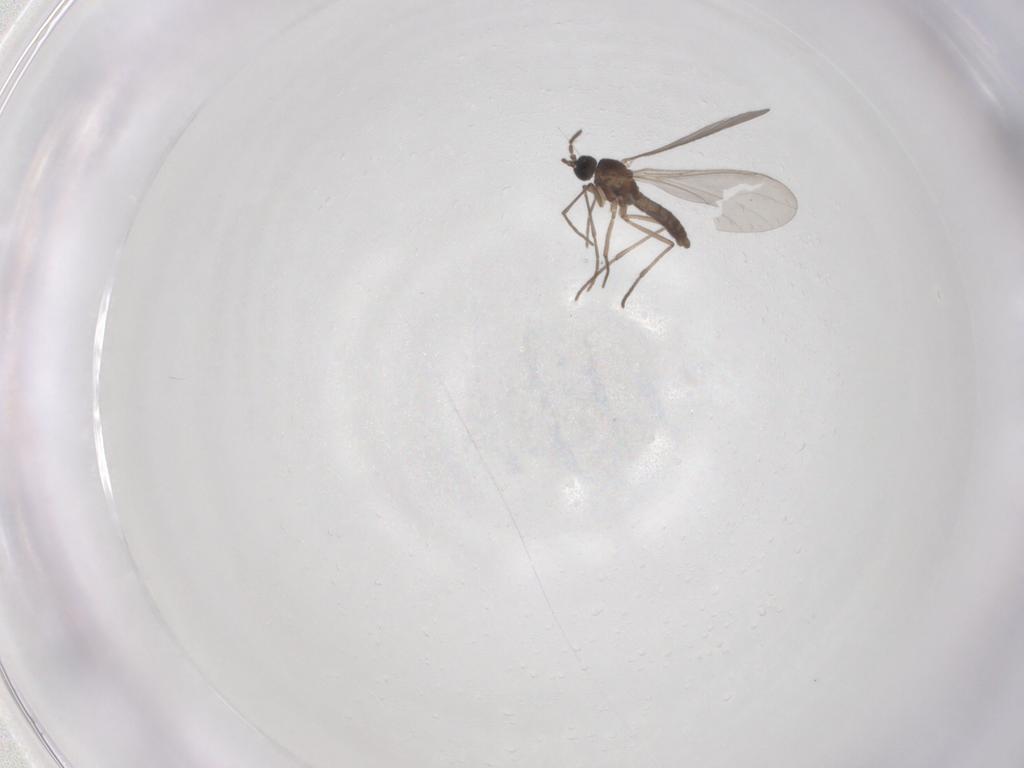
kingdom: Animalia
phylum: Arthropoda
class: Insecta
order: Diptera
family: Sciaridae
